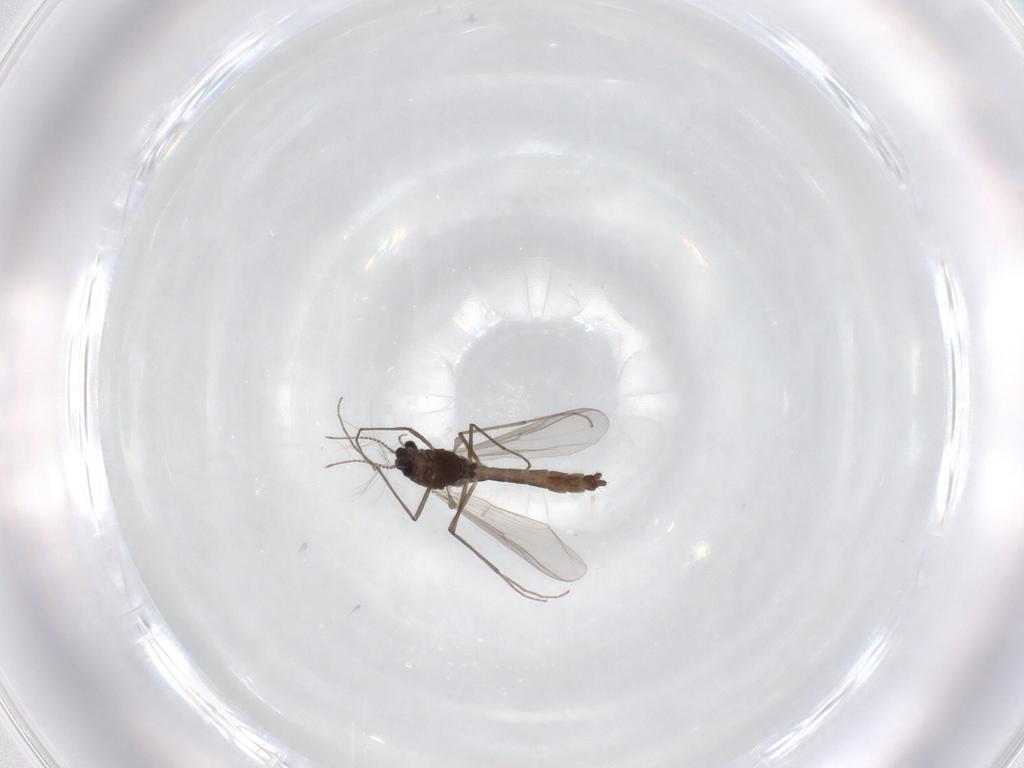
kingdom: Animalia
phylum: Arthropoda
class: Insecta
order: Diptera
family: Chironomidae
